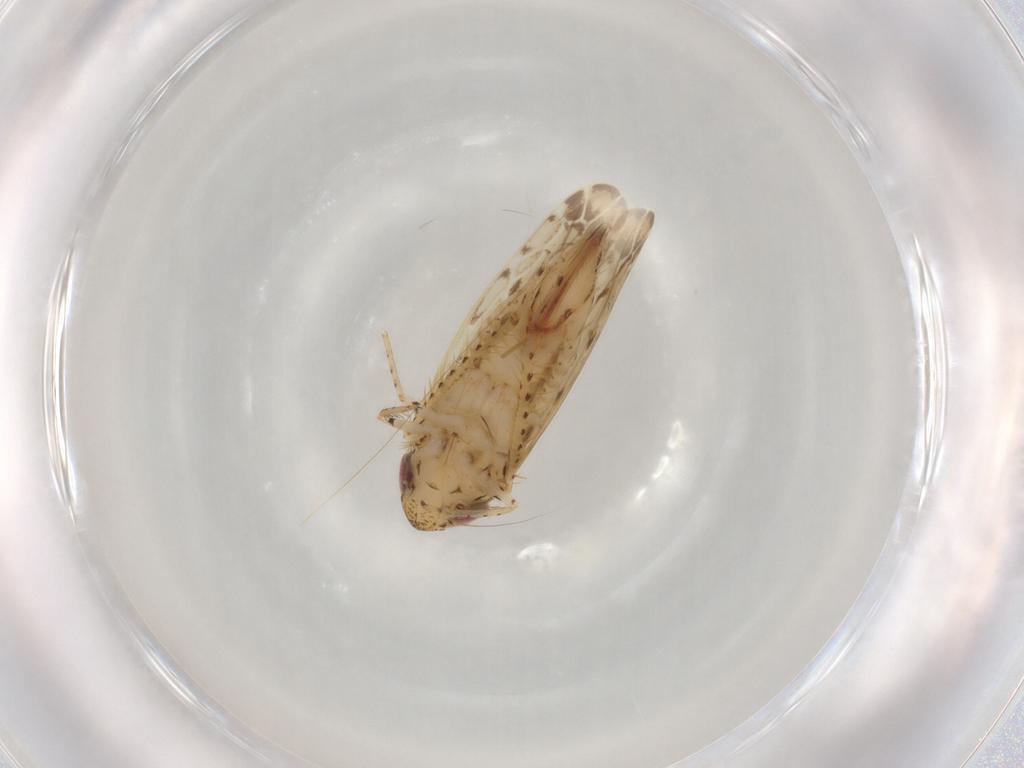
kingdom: Animalia
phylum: Arthropoda
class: Insecta
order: Hemiptera
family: Cicadellidae
